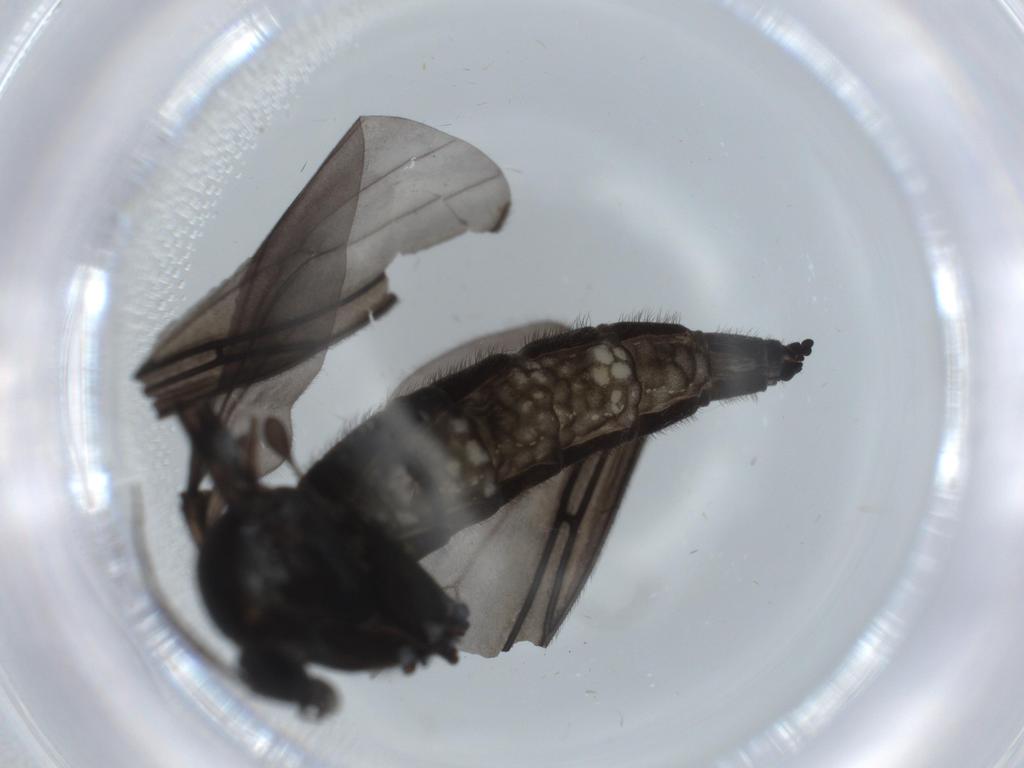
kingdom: Animalia
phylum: Arthropoda
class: Insecta
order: Diptera
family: Sciaridae
